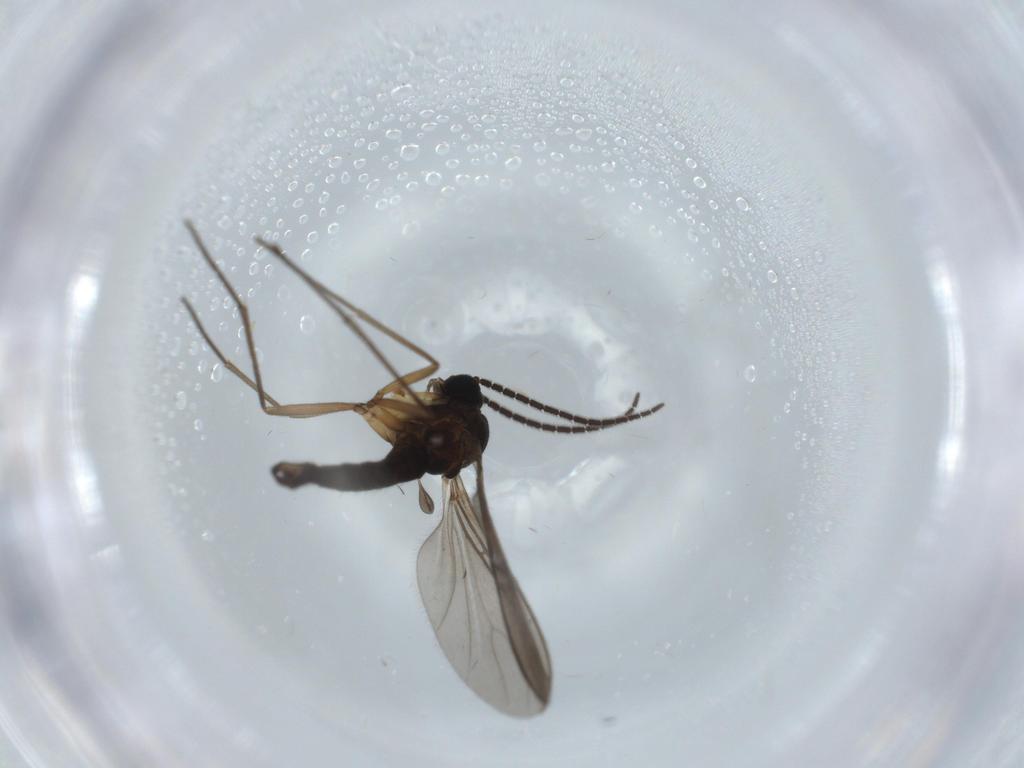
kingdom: Animalia
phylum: Arthropoda
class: Insecta
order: Diptera
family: Sciaridae
